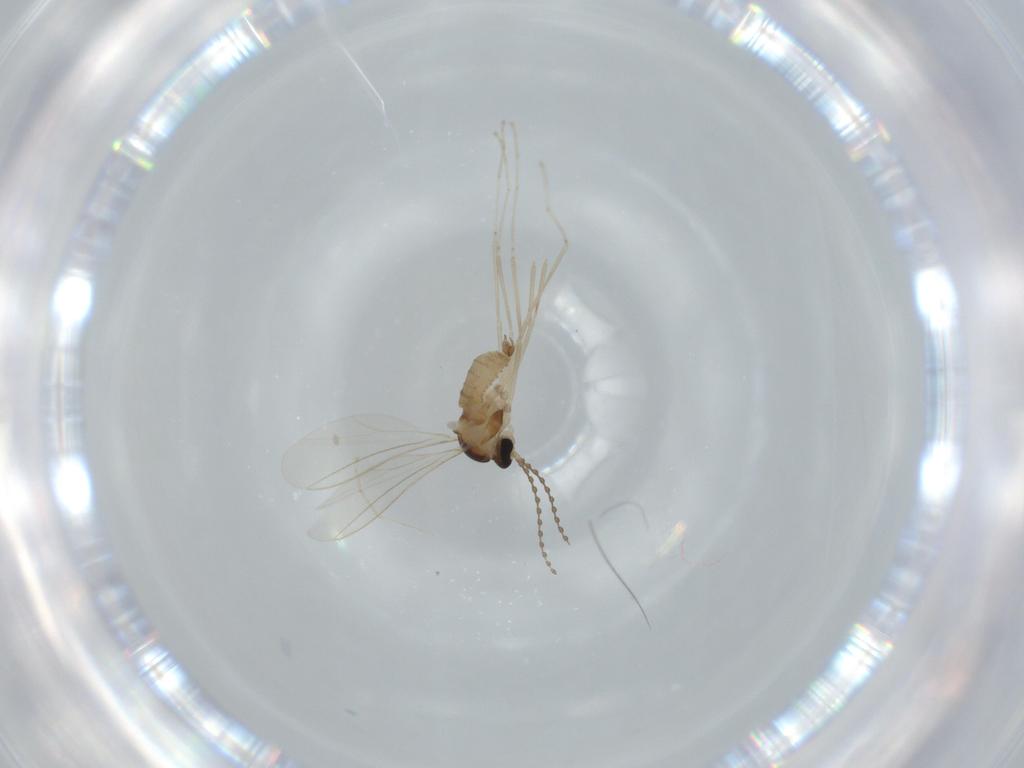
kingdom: Animalia
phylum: Arthropoda
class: Insecta
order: Diptera
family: Cecidomyiidae
